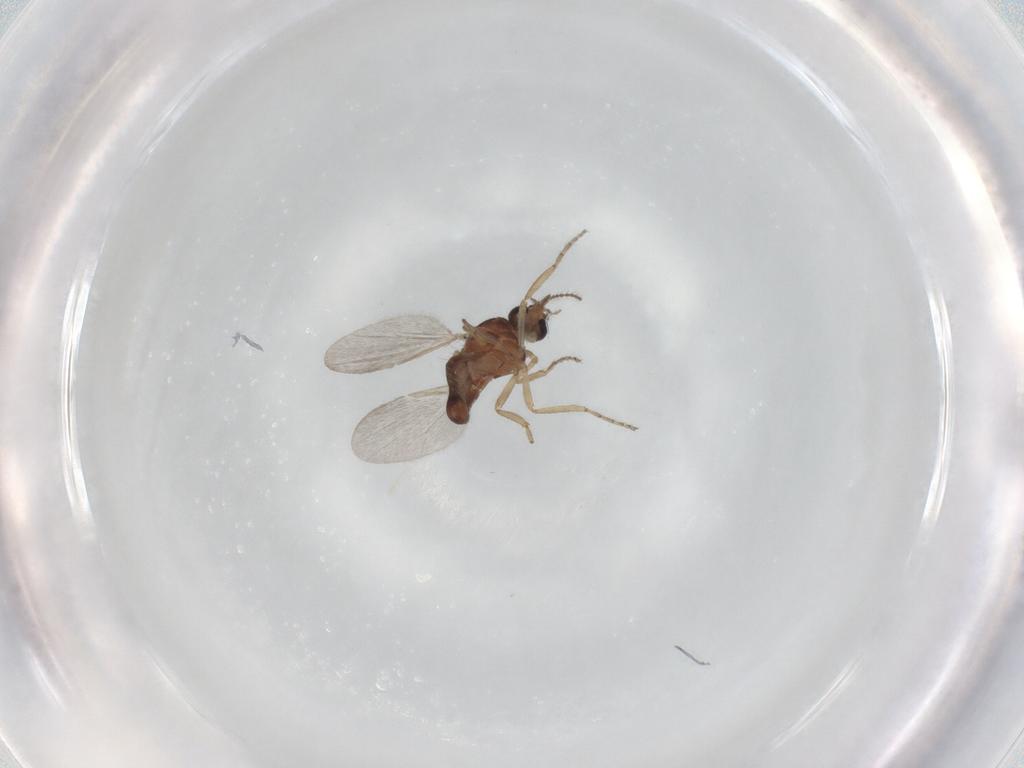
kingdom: Animalia
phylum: Arthropoda
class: Insecta
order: Diptera
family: Ceratopogonidae
